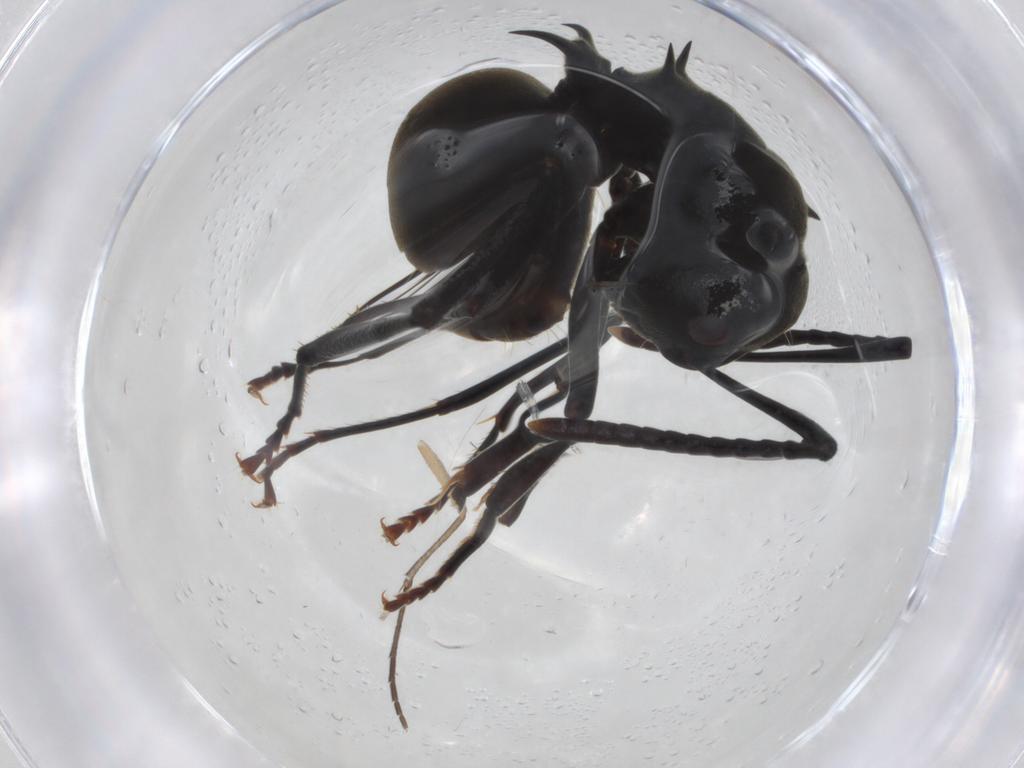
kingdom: Animalia
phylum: Arthropoda
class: Insecta
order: Hymenoptera
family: Formicidae
